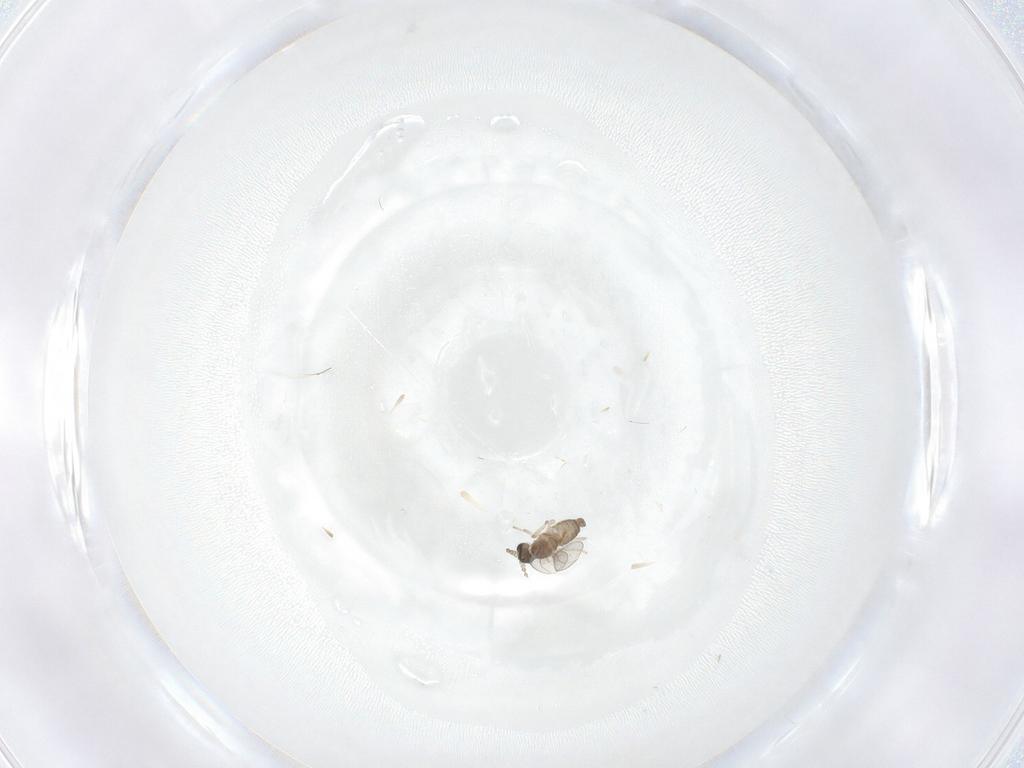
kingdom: Animalia
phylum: Arthropoda
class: Insecta
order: Diptera
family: Cecidomyiidae
